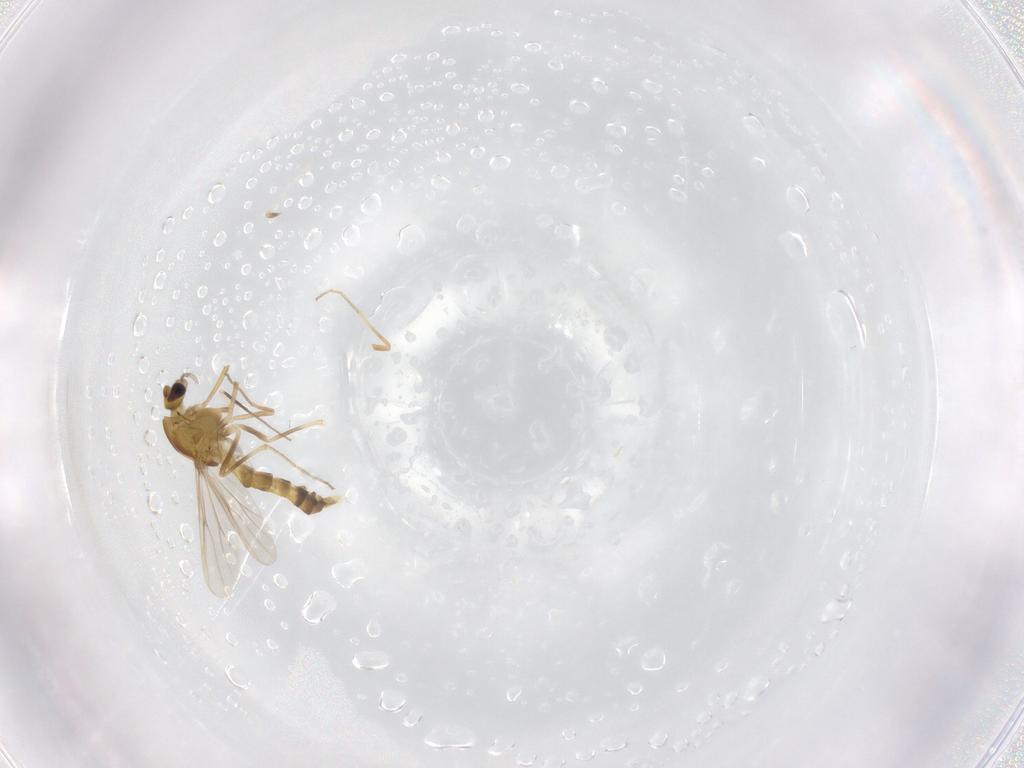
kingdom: Animalia
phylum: Arthropoda
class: Insecta
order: Diptera
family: Chironomidae
